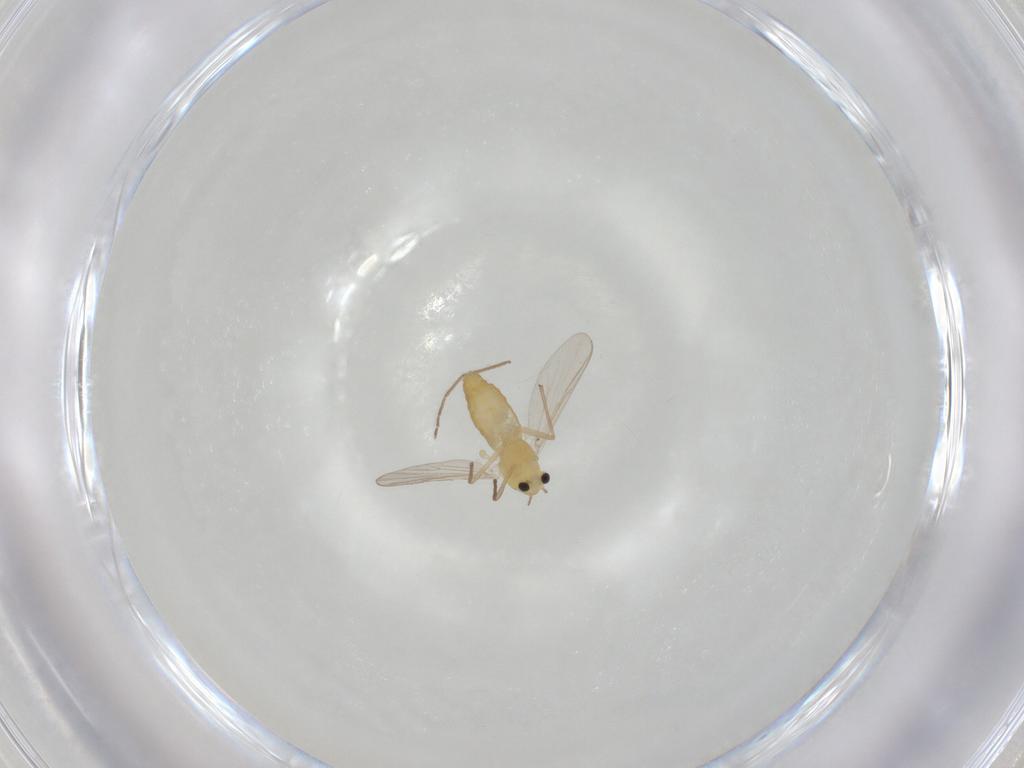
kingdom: Animalia
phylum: Arthropoda
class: Insecta
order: Diptera
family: Chironomidae
